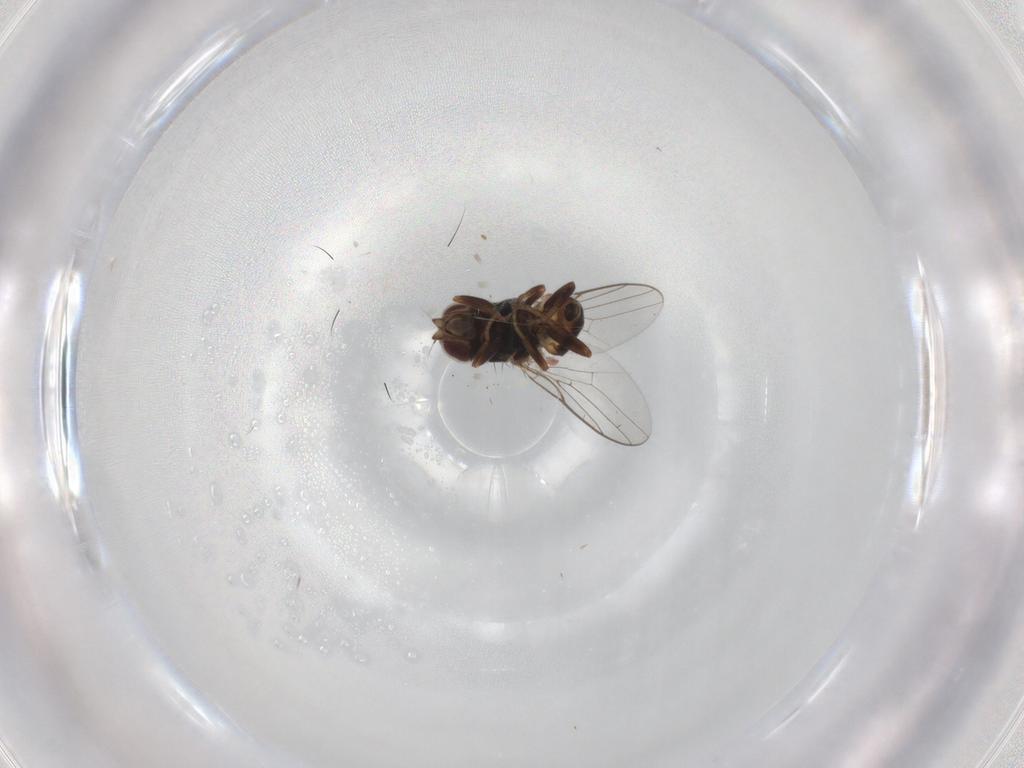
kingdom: Animalia
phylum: Arthropoda
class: Insecta
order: Diptera
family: Chloropidae
